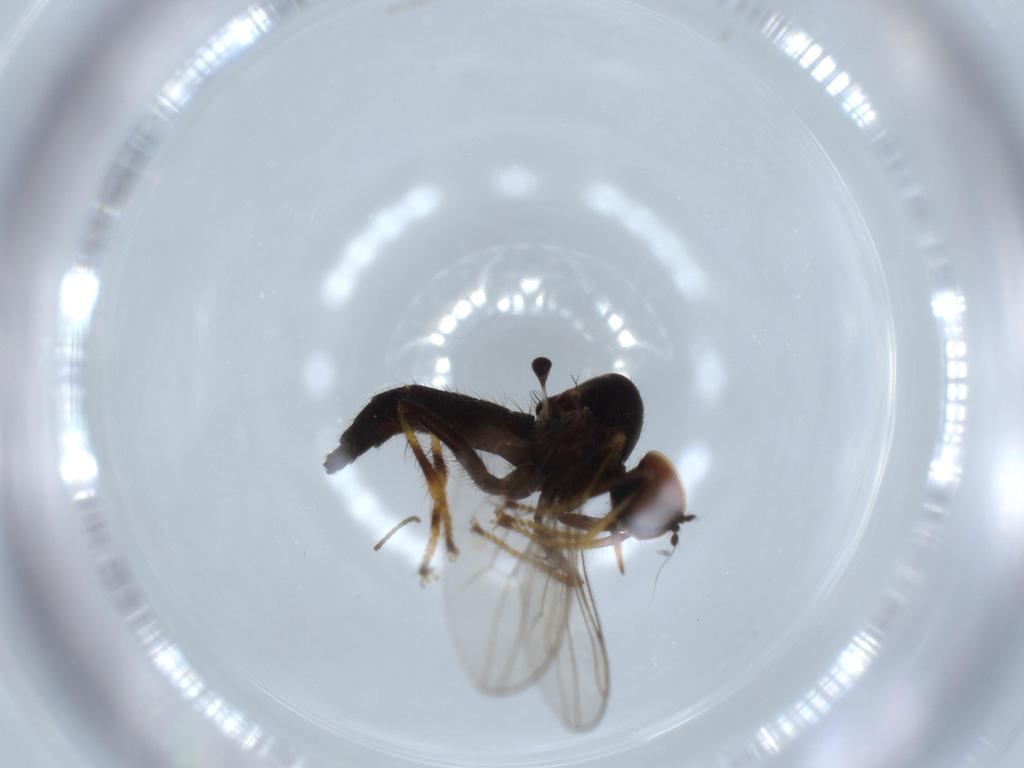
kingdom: Animalia
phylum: Arthropoda
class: Insecta
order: Diptera
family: Hybotidae
